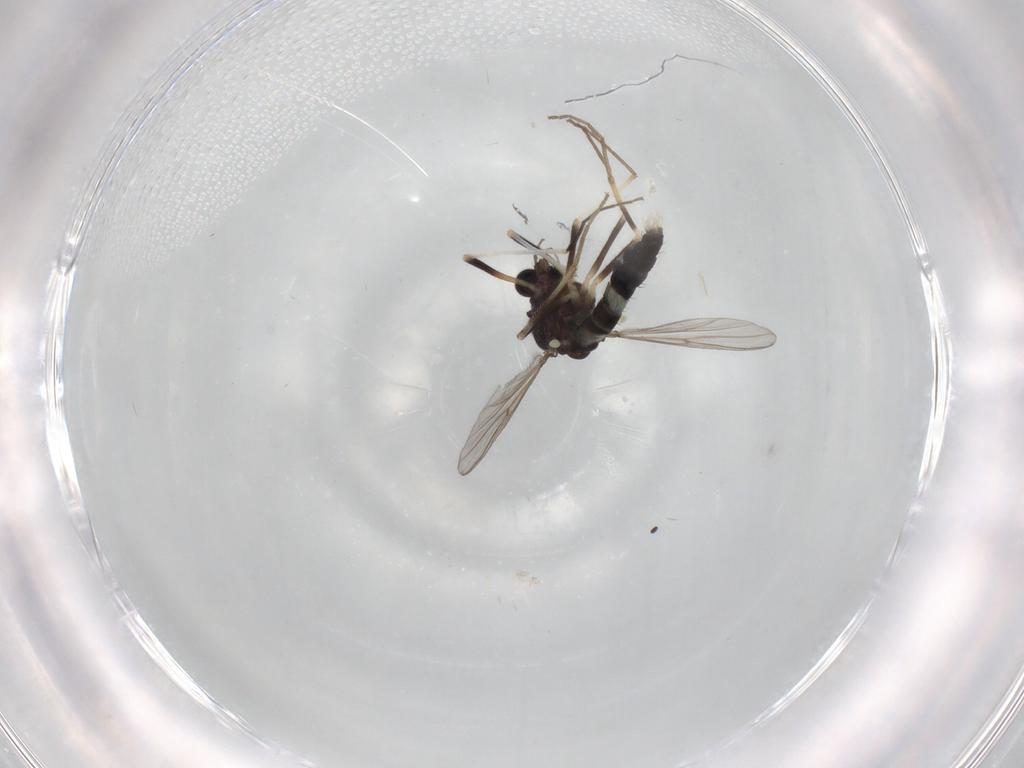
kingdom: Animalia
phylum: Arthropoda
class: Insecta
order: Diptera
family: Chironomidae
